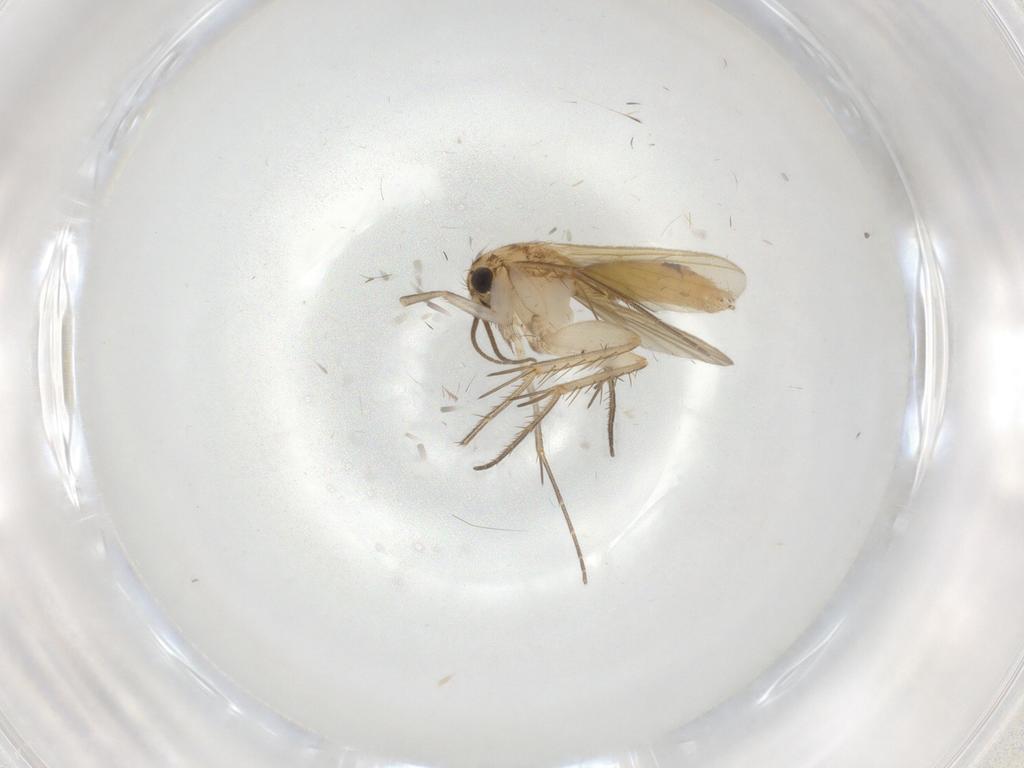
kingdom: Animalia
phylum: Arthropoda
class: Insecta
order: Diptera
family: Mycetophilidae
